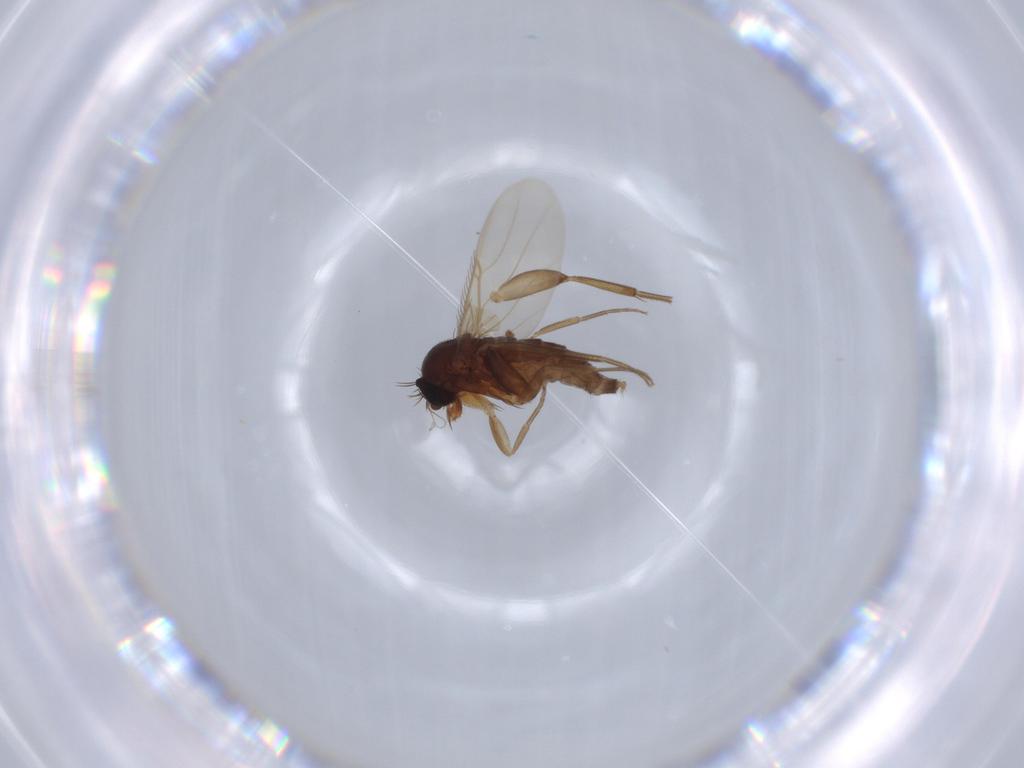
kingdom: Animalia
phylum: Arthropoda
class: Insecta
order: Diptera
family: Phoridae
